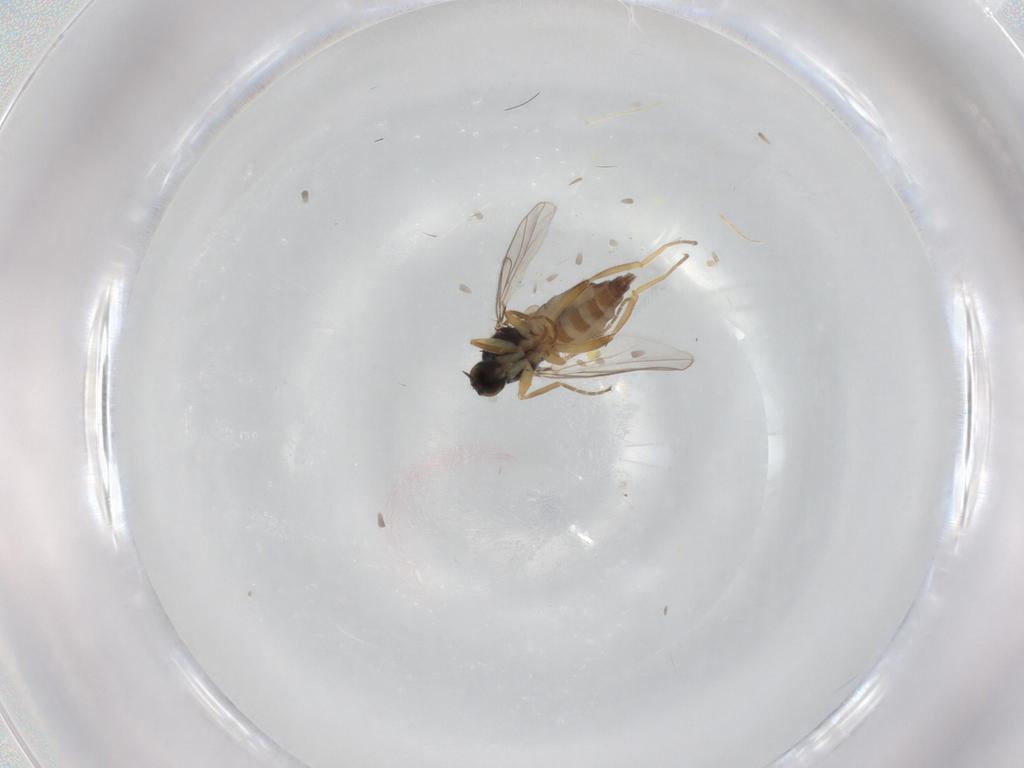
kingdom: Animalia
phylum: Arthropoda
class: Insecta
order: Diptera
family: Hybotidae
